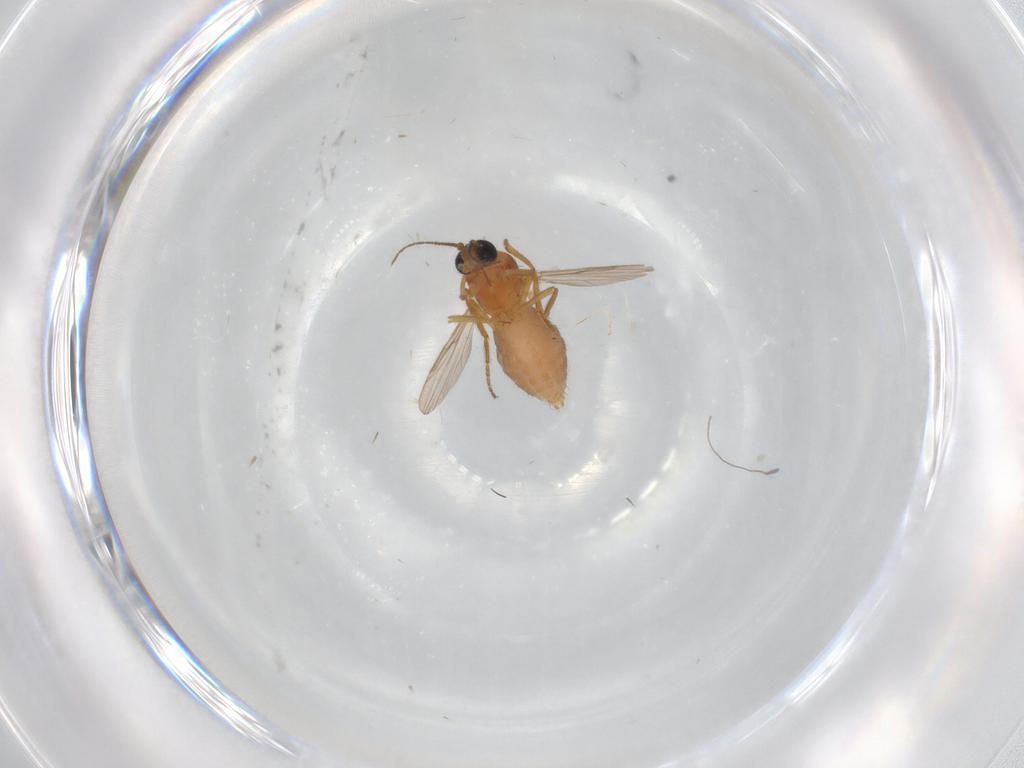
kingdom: Animalia
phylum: Arthropoda
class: Insecta
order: Diptera
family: Ceratopogonidae
